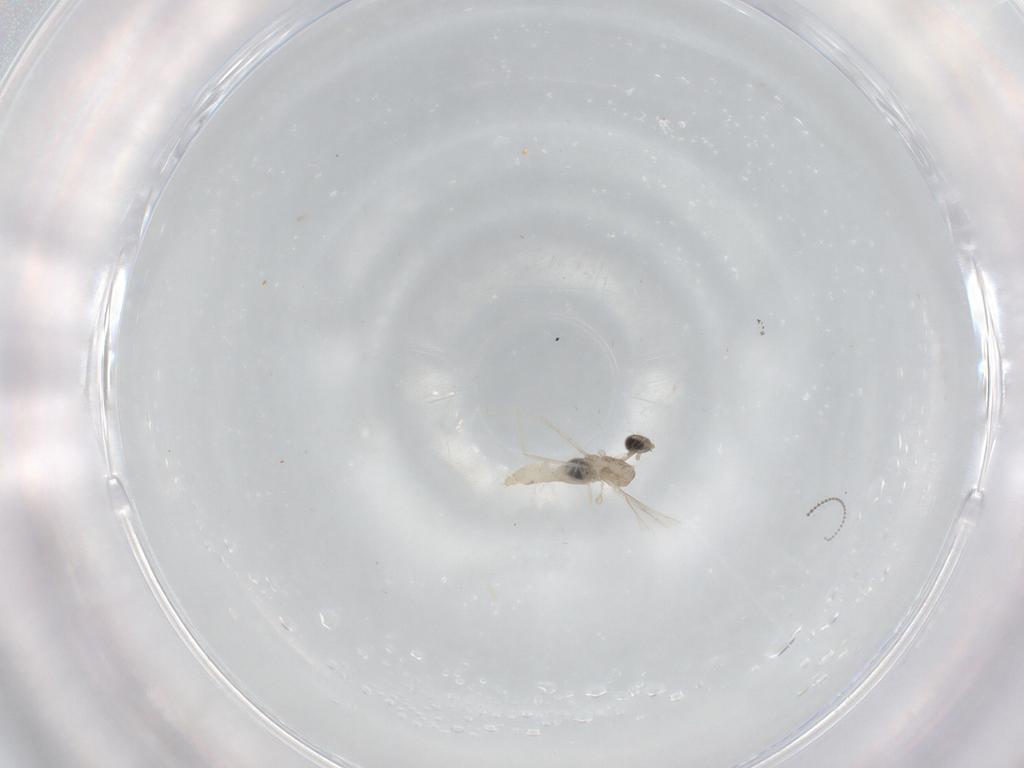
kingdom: Animalia
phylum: Arthropoda
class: Insecta
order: Diptera
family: Cecidomyiidae
